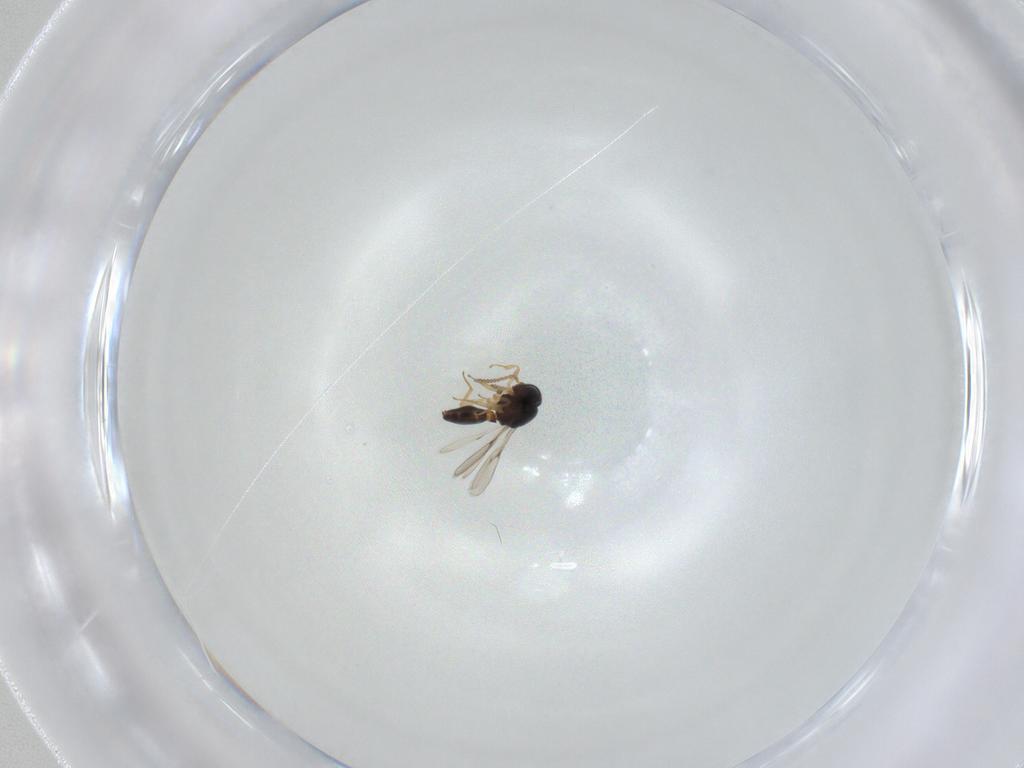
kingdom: Animalia
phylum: Arthropoda
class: Insecta
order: Hymenoptera
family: Scelionidae
